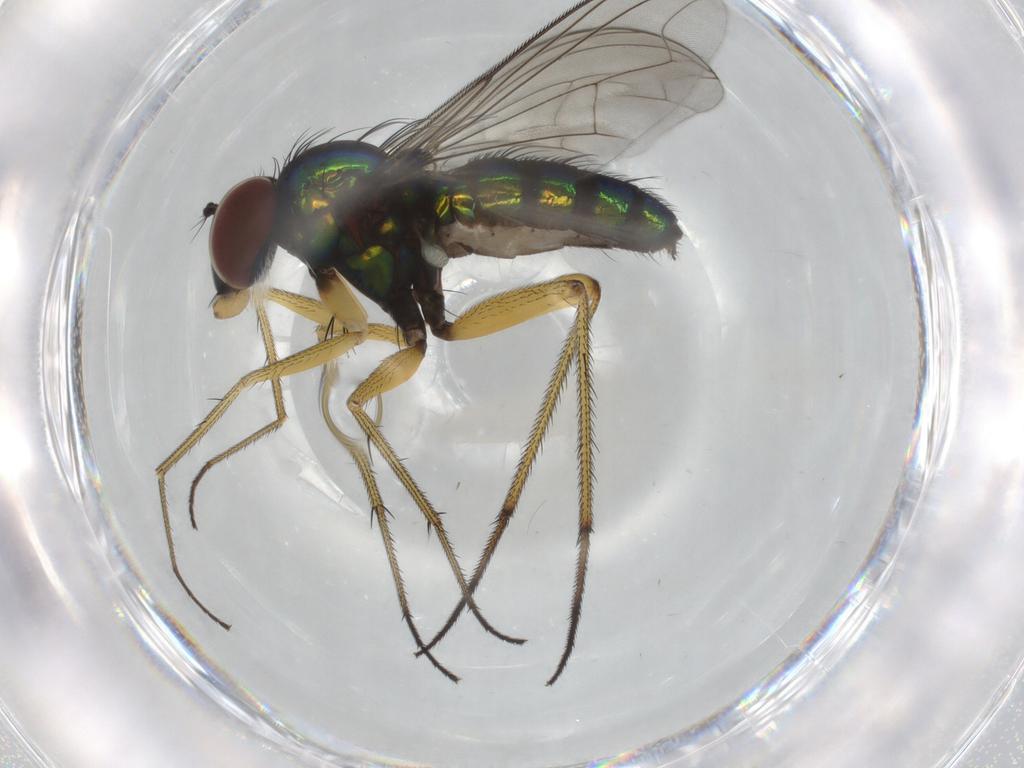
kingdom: Animalia
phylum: Arthropoda
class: Insecta
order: Diptera
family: Dolichopodidae
